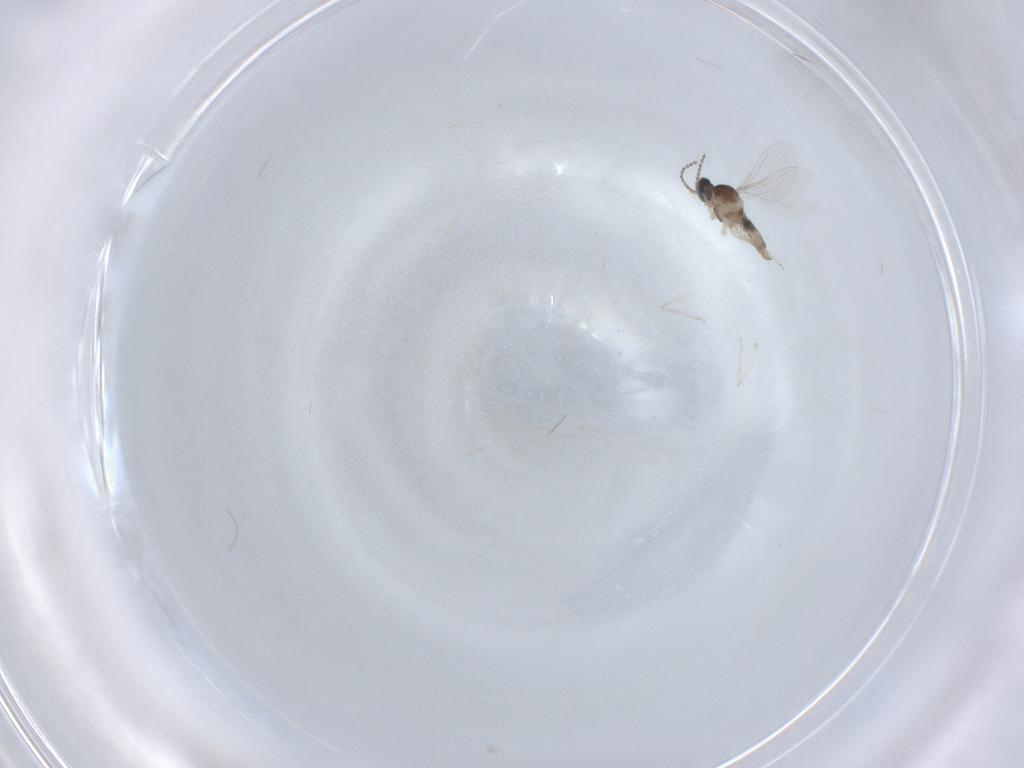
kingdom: Animalia
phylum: Arthropoda
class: Insecta
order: Diptera
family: Cecidomyiidae
